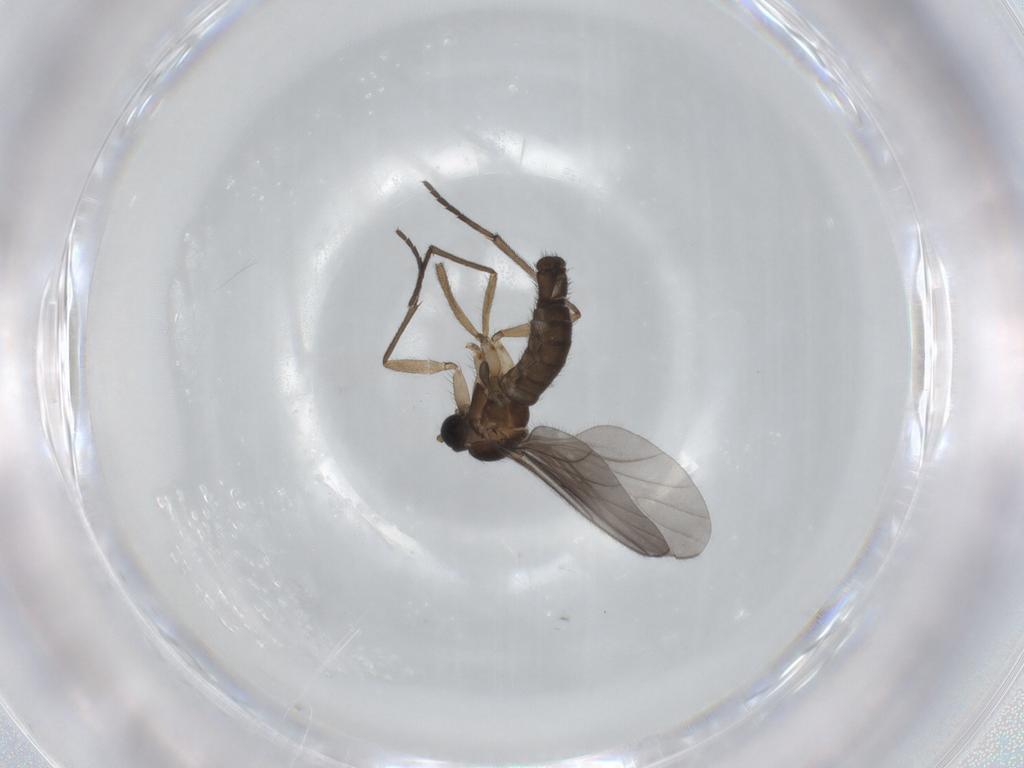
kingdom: Animalia
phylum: Arthropoda
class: Insecta
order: Diptera
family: Sciaridae
